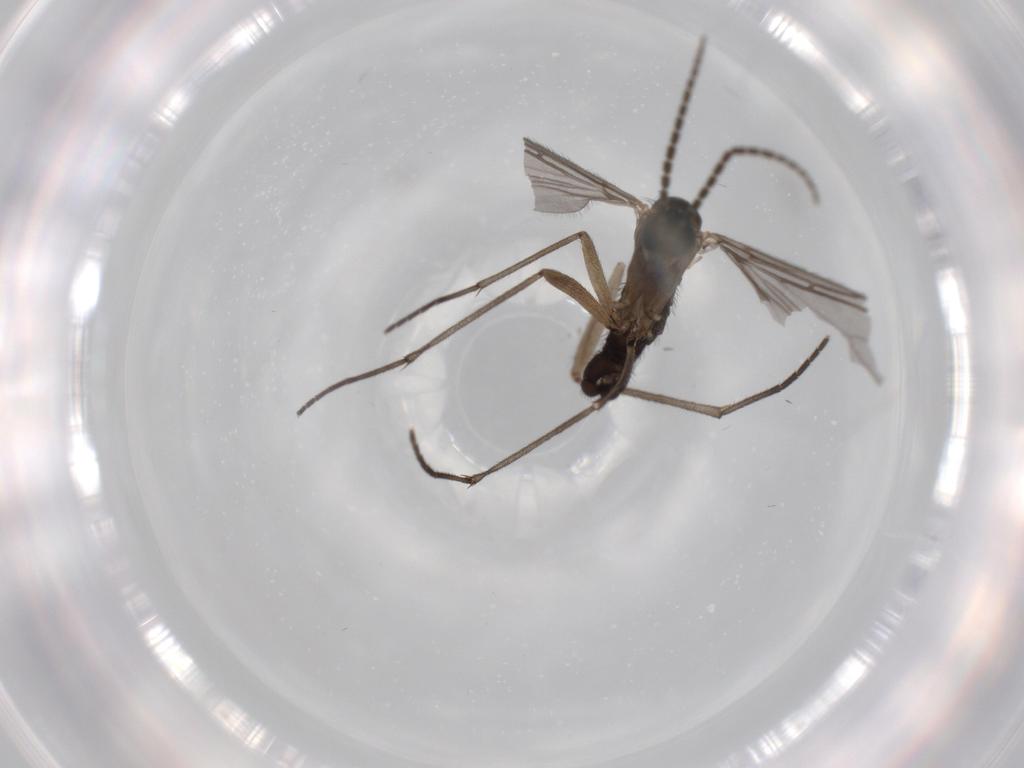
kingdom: Animalia
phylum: Arthropoda
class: Insecta
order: Diptera
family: Sciaridae
